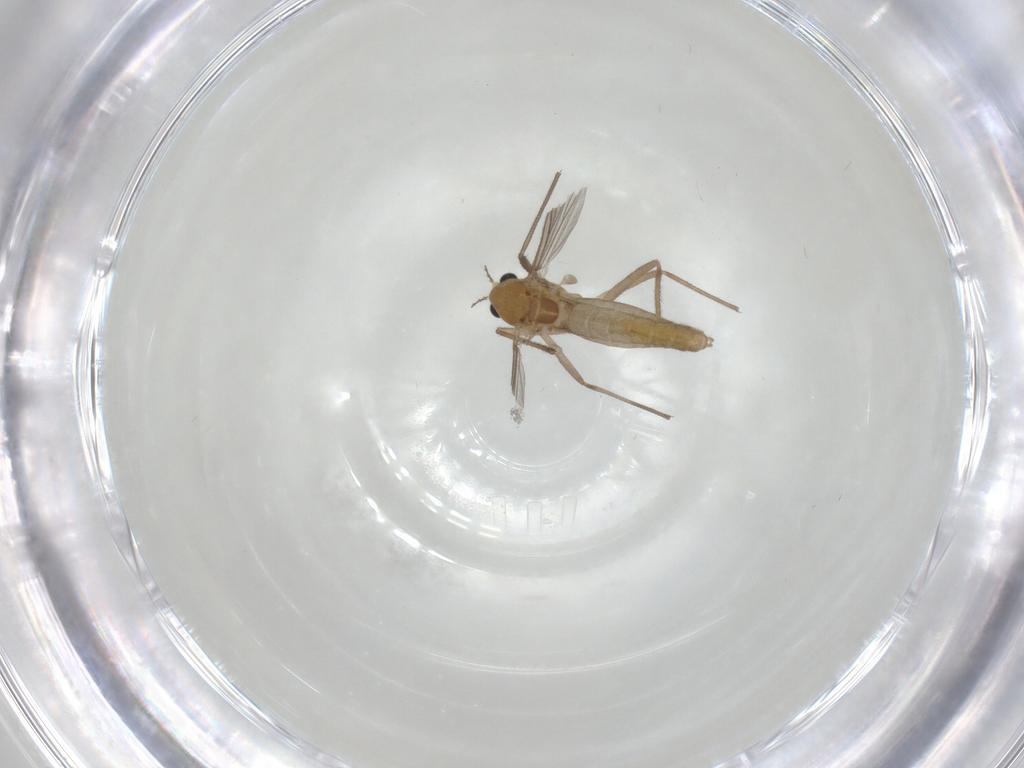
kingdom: Animalia
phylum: Arthropoda
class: Insecta
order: Diptera
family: Chironomidae
